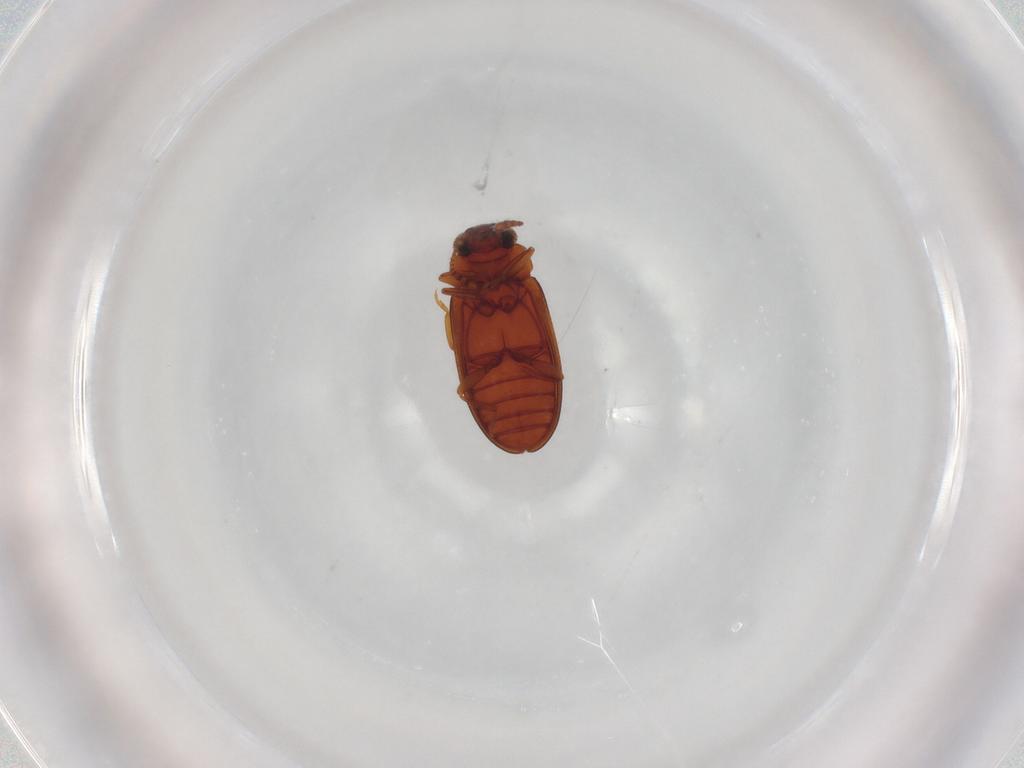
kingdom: Animalia
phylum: Arthropoda
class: Insecta
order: Coleoptera
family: Erotylidae
